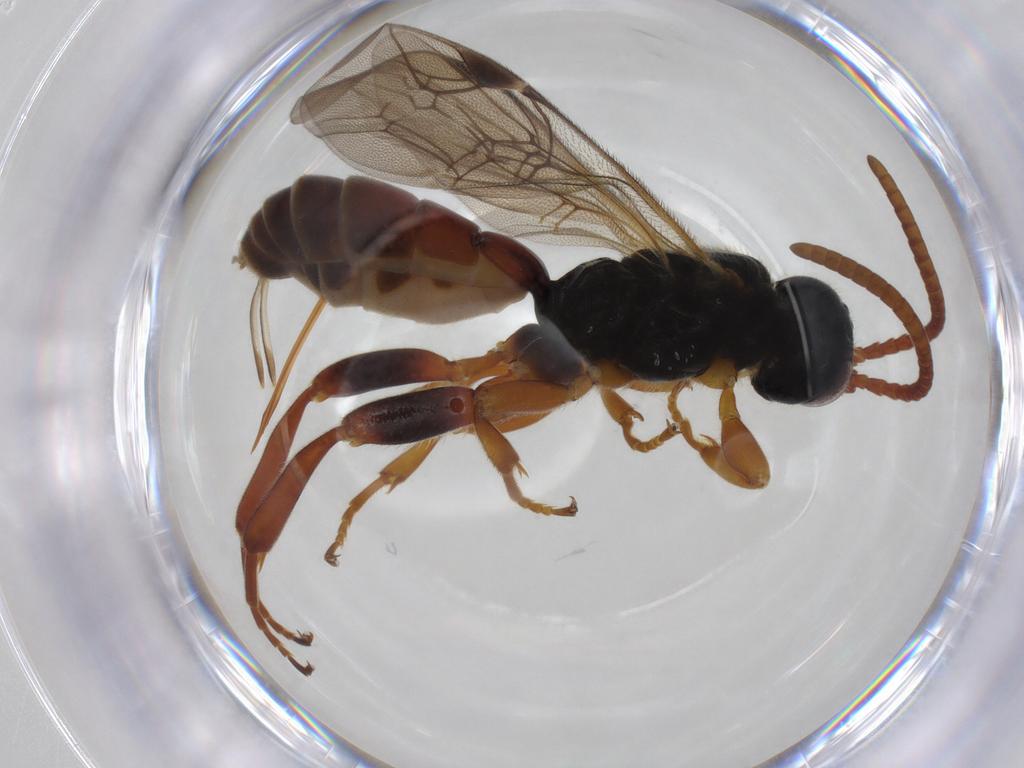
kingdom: Animalia
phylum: Arthropoda
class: Insecta
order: Hymenoptera
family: Ichneumonidae
